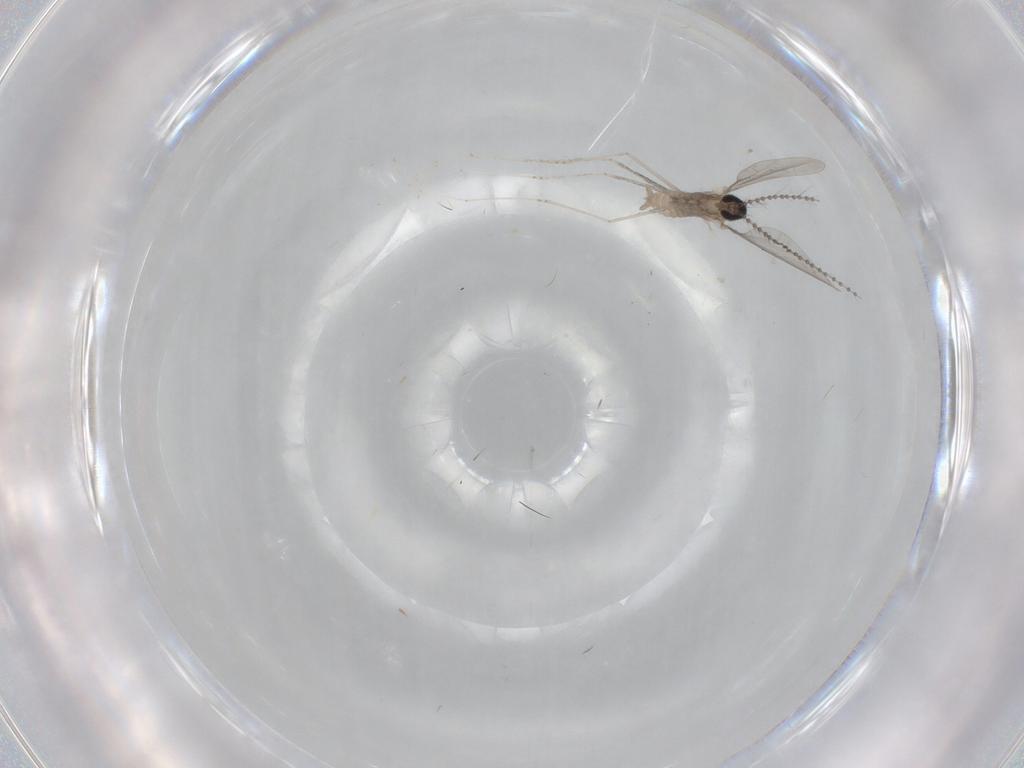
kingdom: Animalia
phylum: Arthropoda
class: Insecta
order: Diptera
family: Cecidomyiidae
